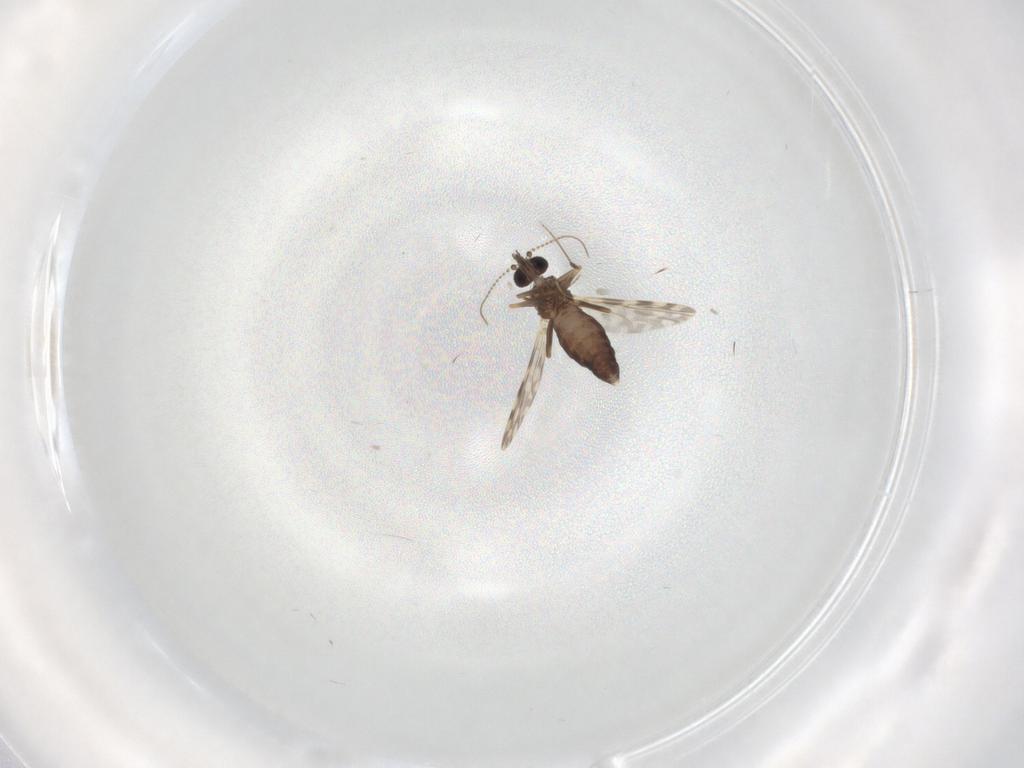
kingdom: Animalia
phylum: Arthropoda
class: Insecta
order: Diptera
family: Ceratopogonidae
